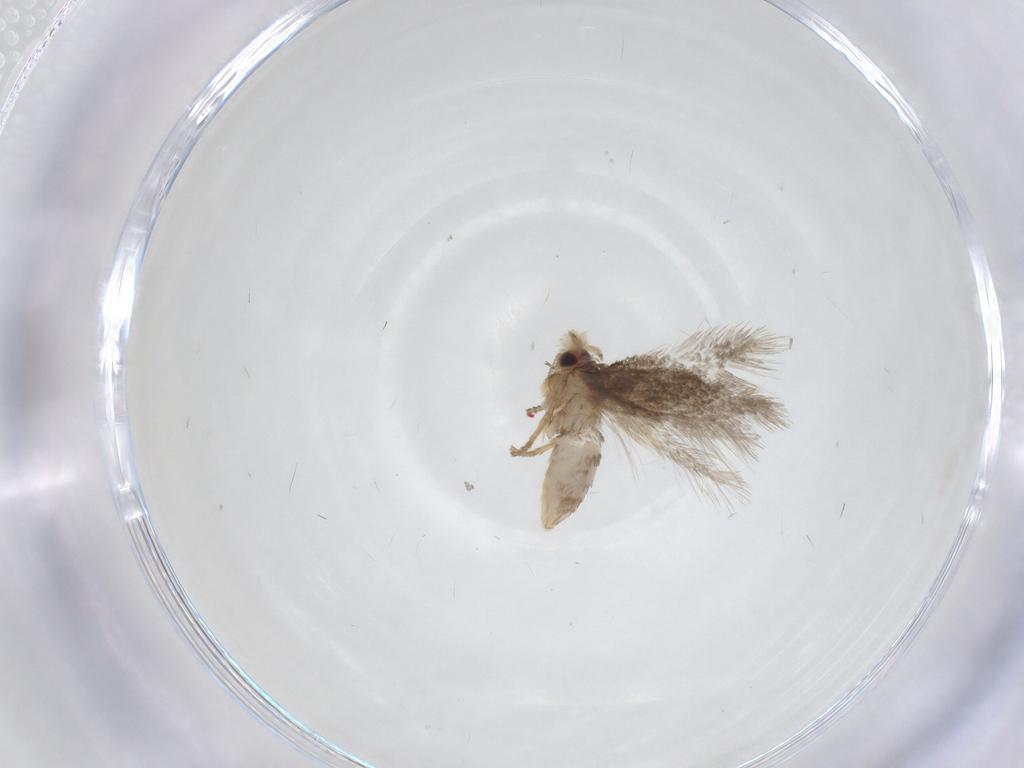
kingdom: Animalia
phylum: Arthropoda
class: Insecta
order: Lepidoptera
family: Nepticulidae
